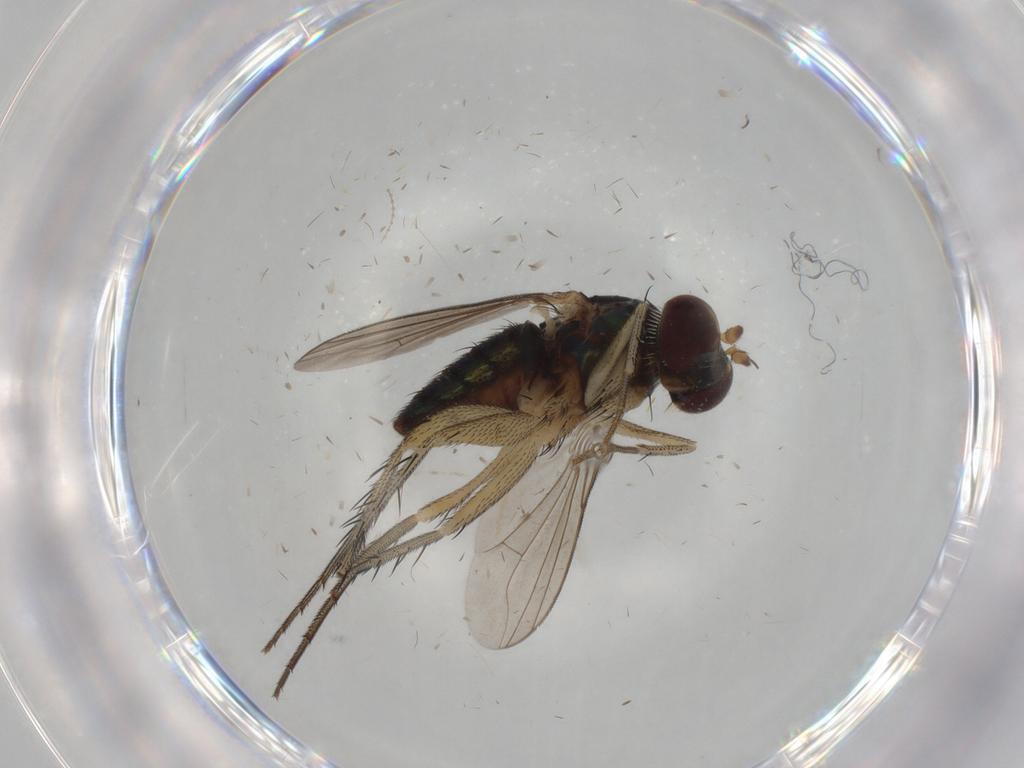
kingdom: Animalia
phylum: Arthropoda
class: Insecta
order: Diptera
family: Dolichopodidae
